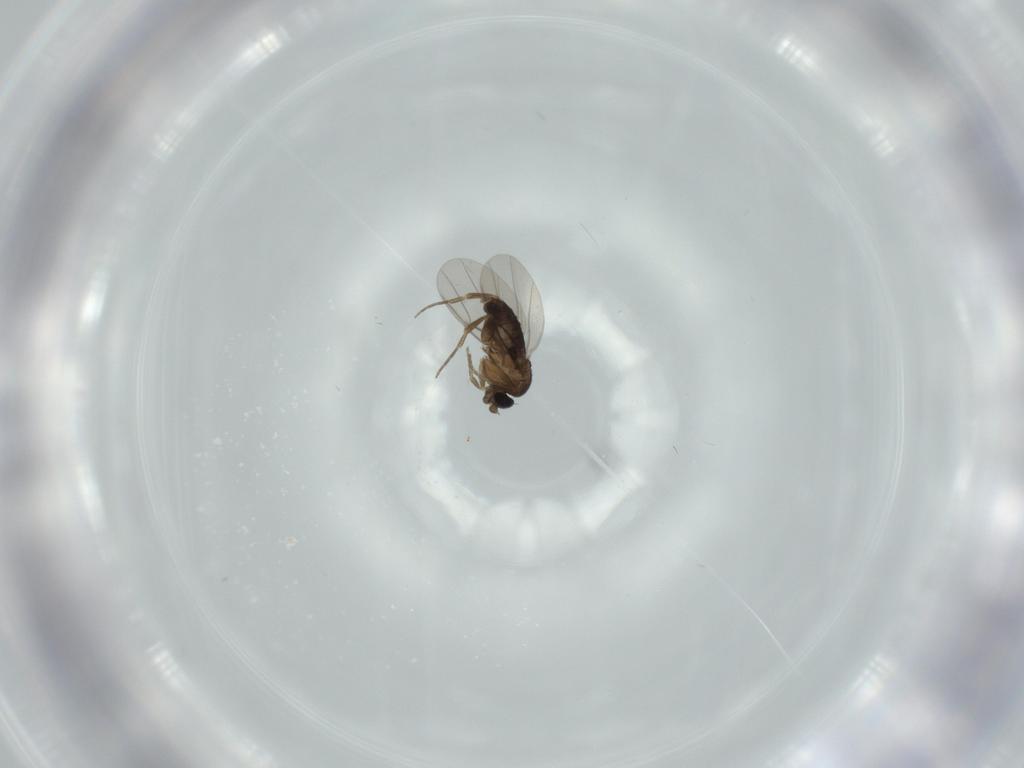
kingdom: Animalia
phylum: Arthropoda
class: Insecta
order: Diptera
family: Phoridae
